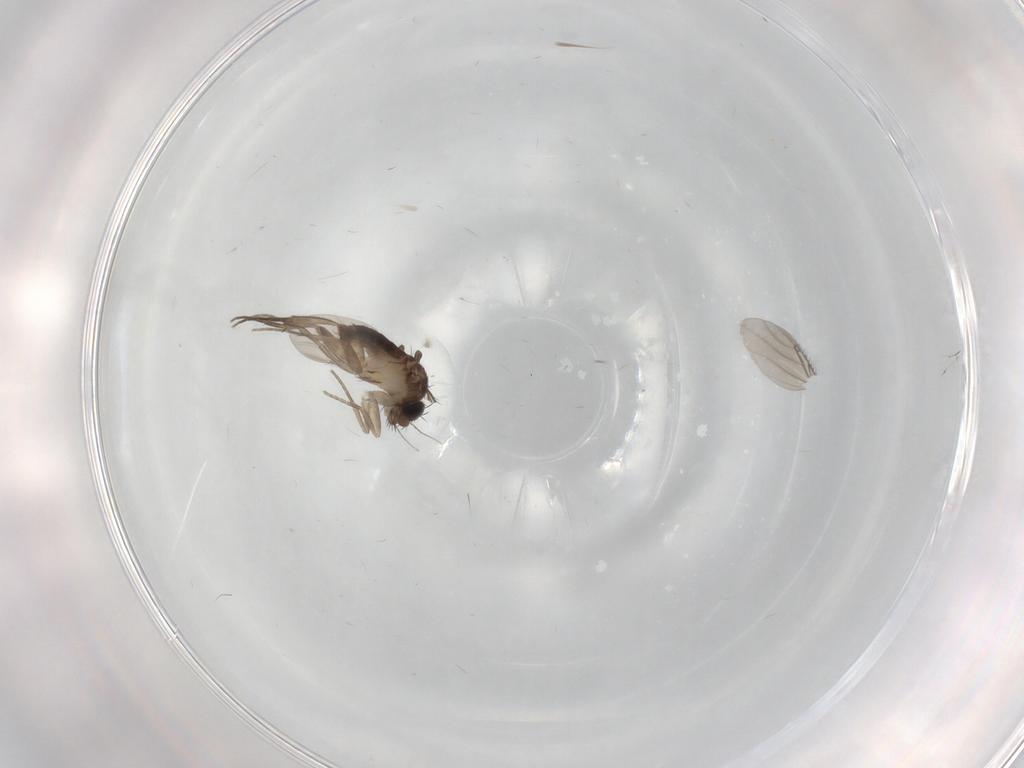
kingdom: Animalia
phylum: Arthropoda
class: Insecta
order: Diptera
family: Phoridae
